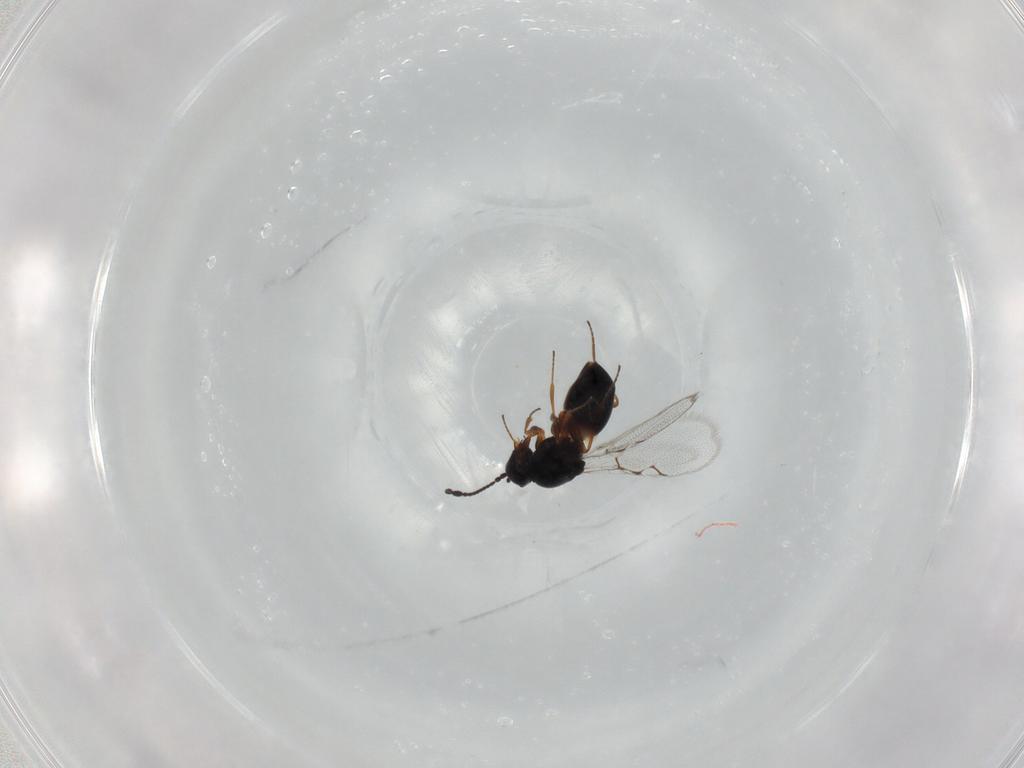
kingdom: Animalia
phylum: Arthropoda
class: Insecta
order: Hymenoptera
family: Figitidae
